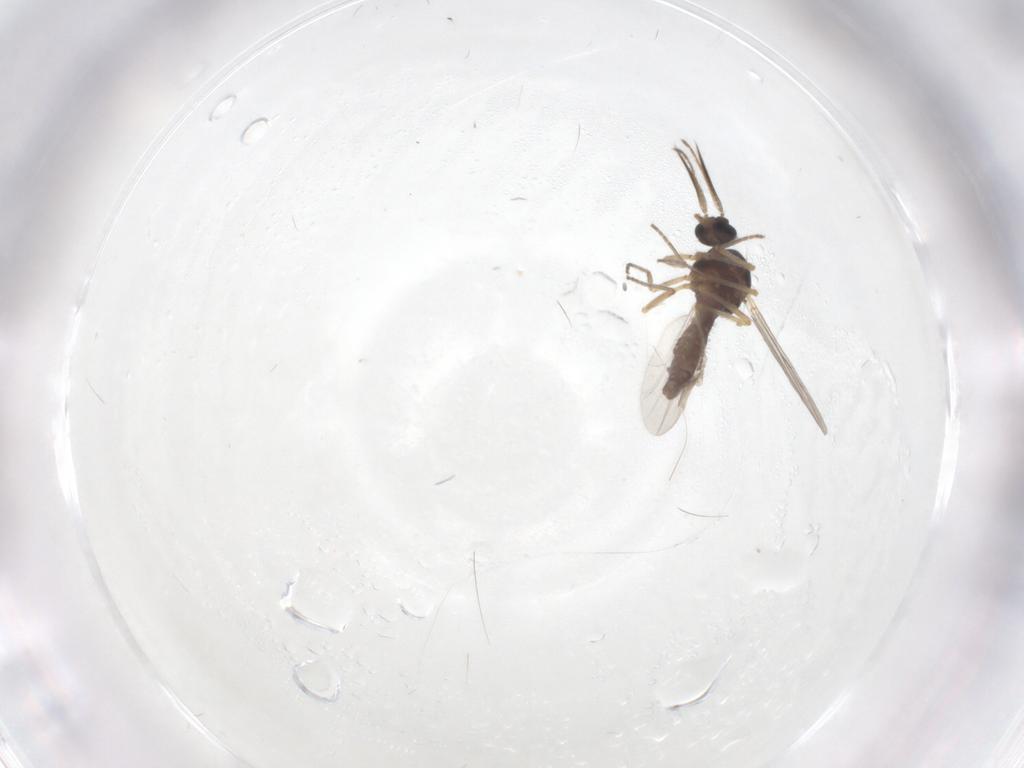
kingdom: Animalia
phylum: Arthropoda
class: Insecta
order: Diptera
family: Ceratopogonidae
